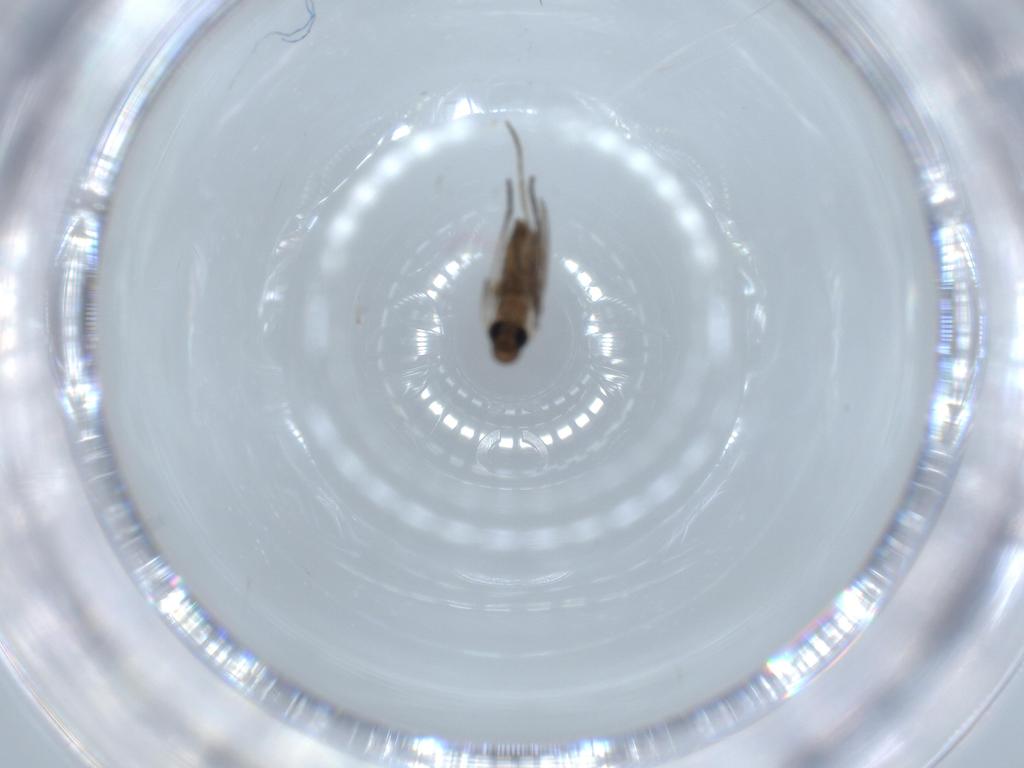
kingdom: Animalia
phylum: Arthropoda
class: Insecta
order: Diptera
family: Psychodidae
